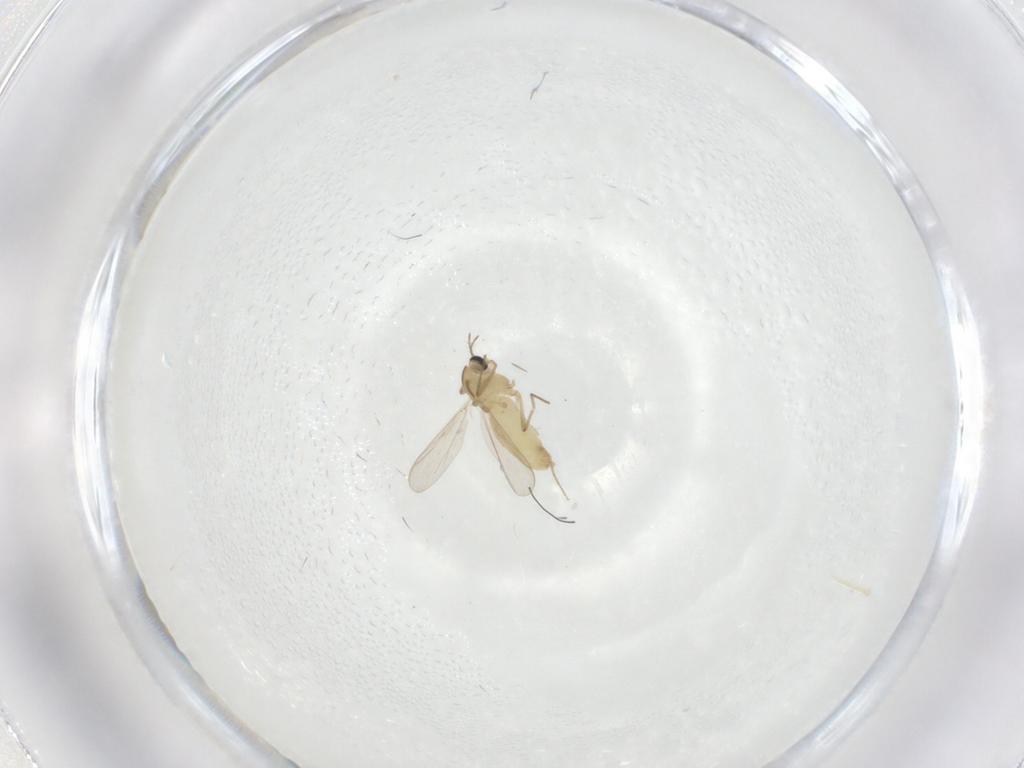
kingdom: Animalia
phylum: Arthropoda
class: Insecta
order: Diptera
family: Chironomidae
